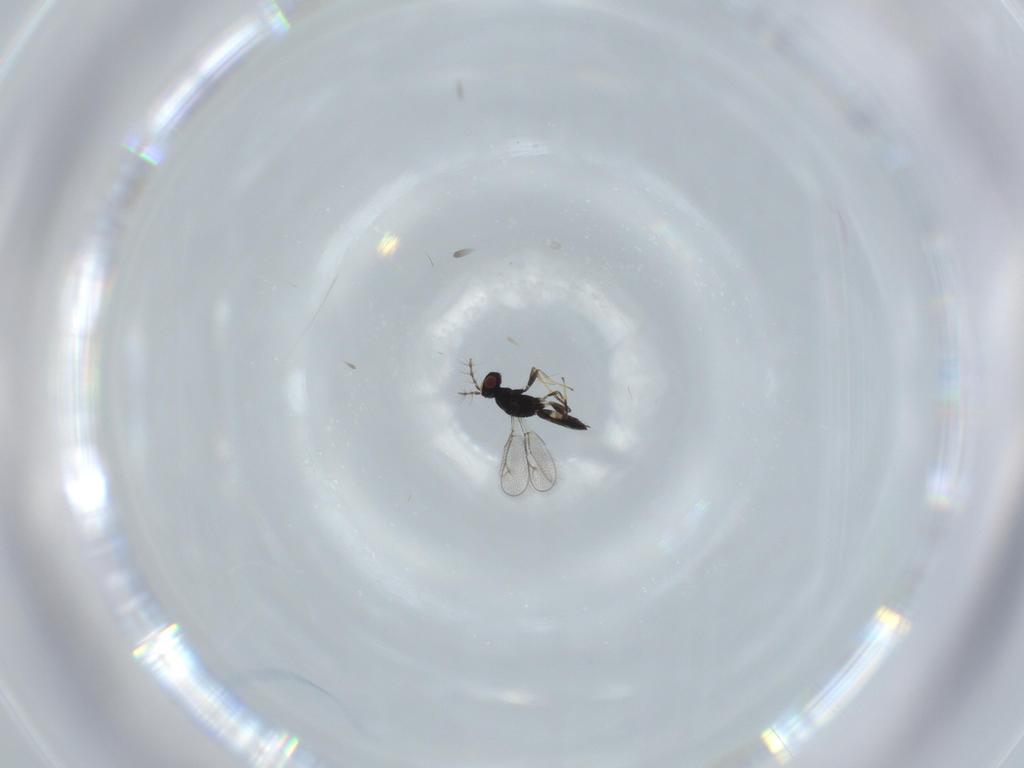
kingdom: Animalia
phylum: Arthropoda
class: Insecta
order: Hymenoptera
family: Pteromalidae
